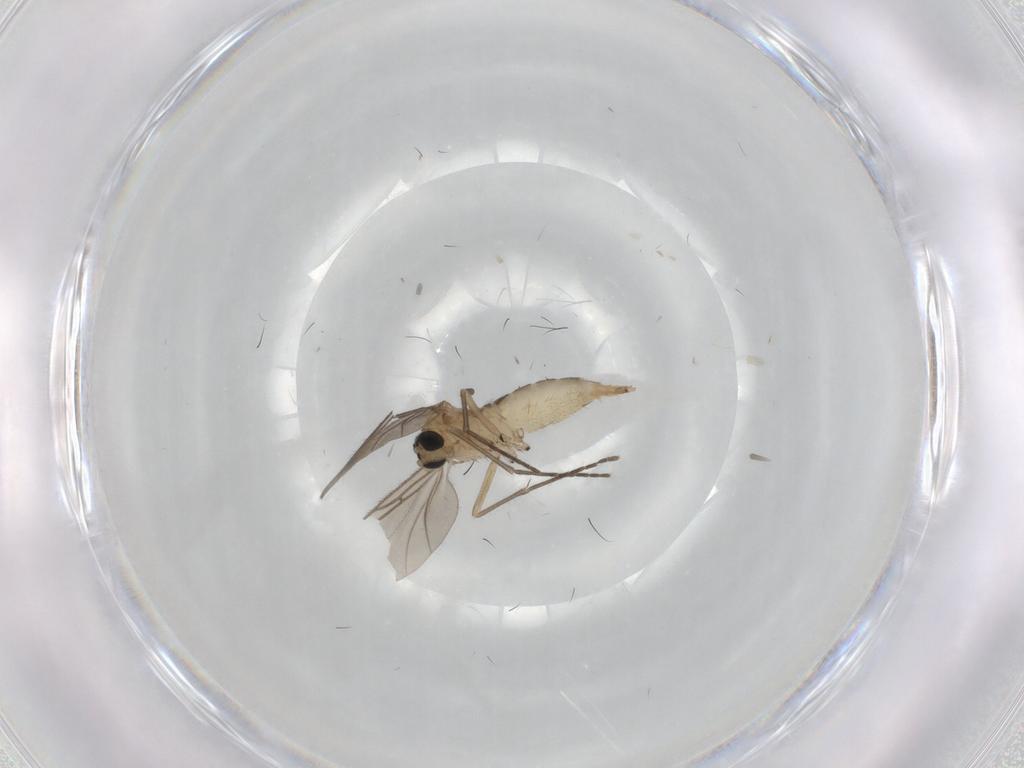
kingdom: Animalia
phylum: Arthropoda
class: Insecta
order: Diptera
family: Sciaridae
